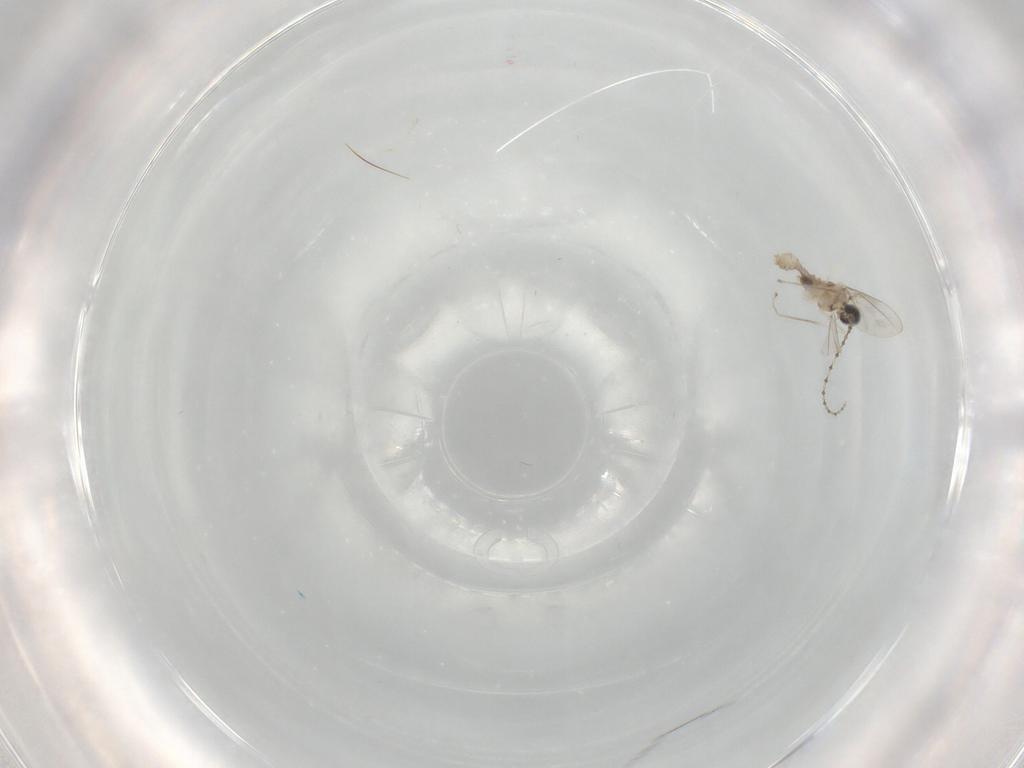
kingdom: Animalia
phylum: Arthropoda
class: Insecta
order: Diptera
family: Cecidomyiidae
